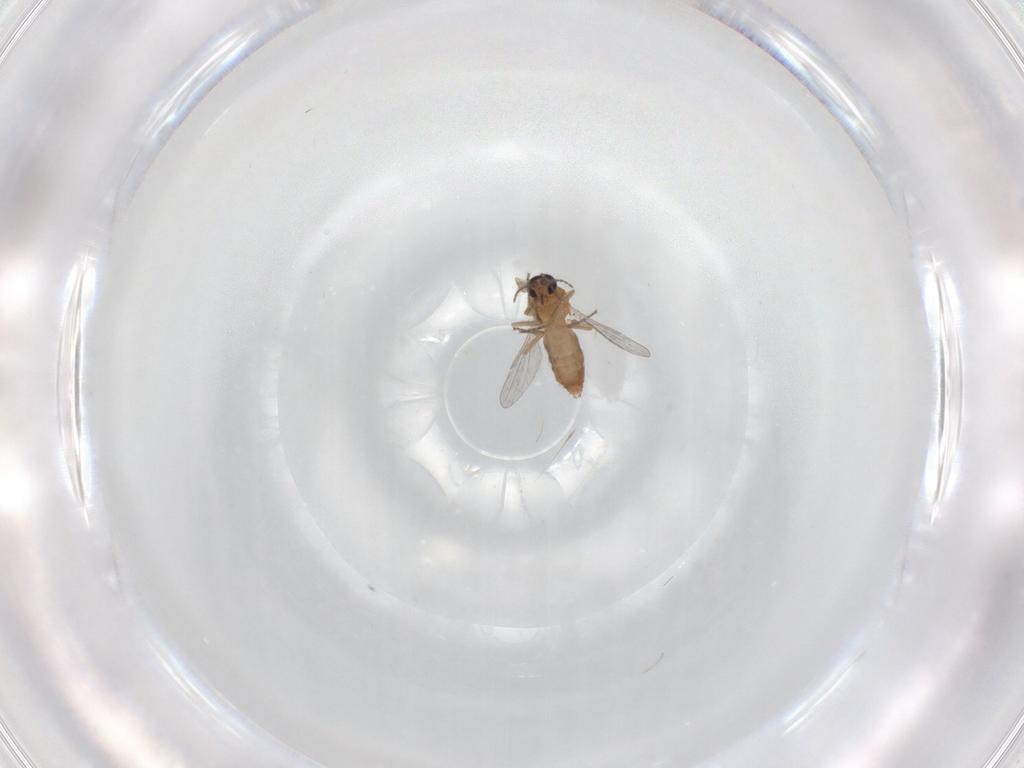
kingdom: Animalia
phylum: Arthropoda
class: Insecta
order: Diptera
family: Ceratopogonidae
